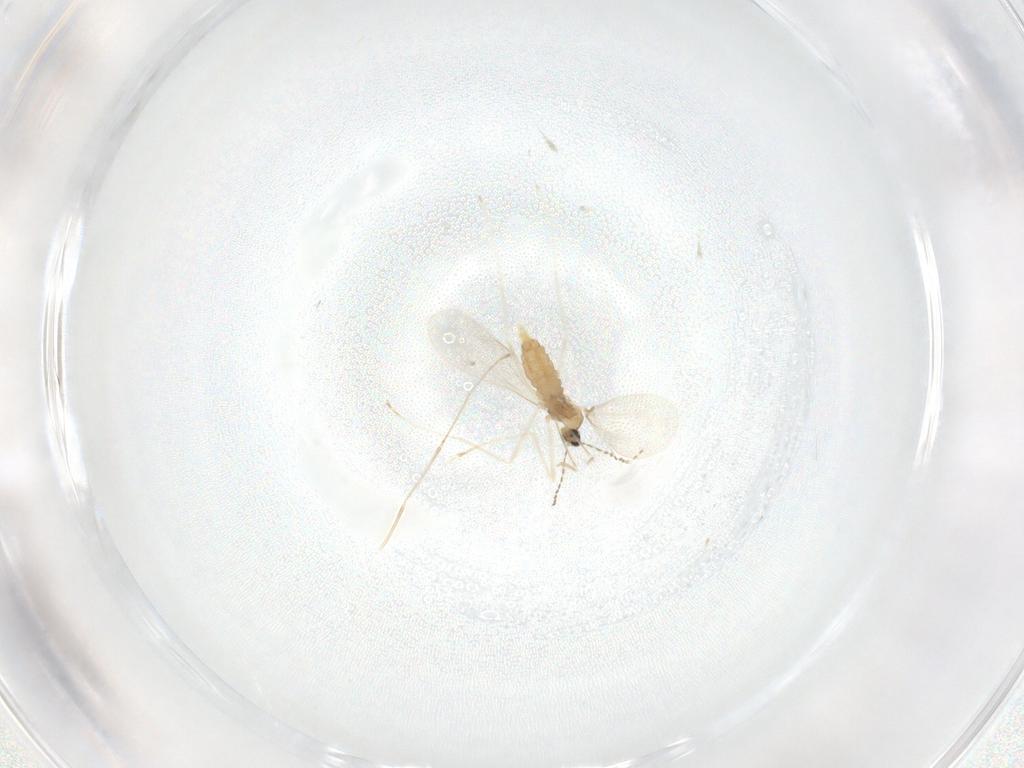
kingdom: Animalia
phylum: Arthropoda
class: Insecta
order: Diptera
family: Cecidomyiidae
